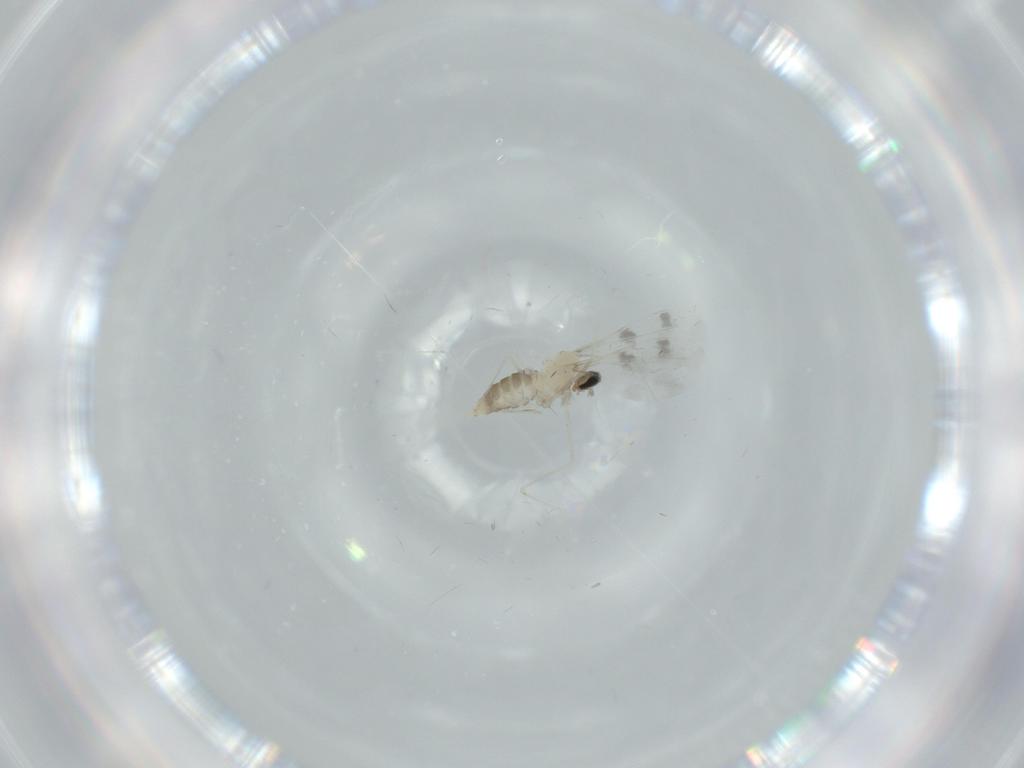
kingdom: Animalia
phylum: Arthropoda
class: Insecta
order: Diptera
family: Cecidomyiidae
